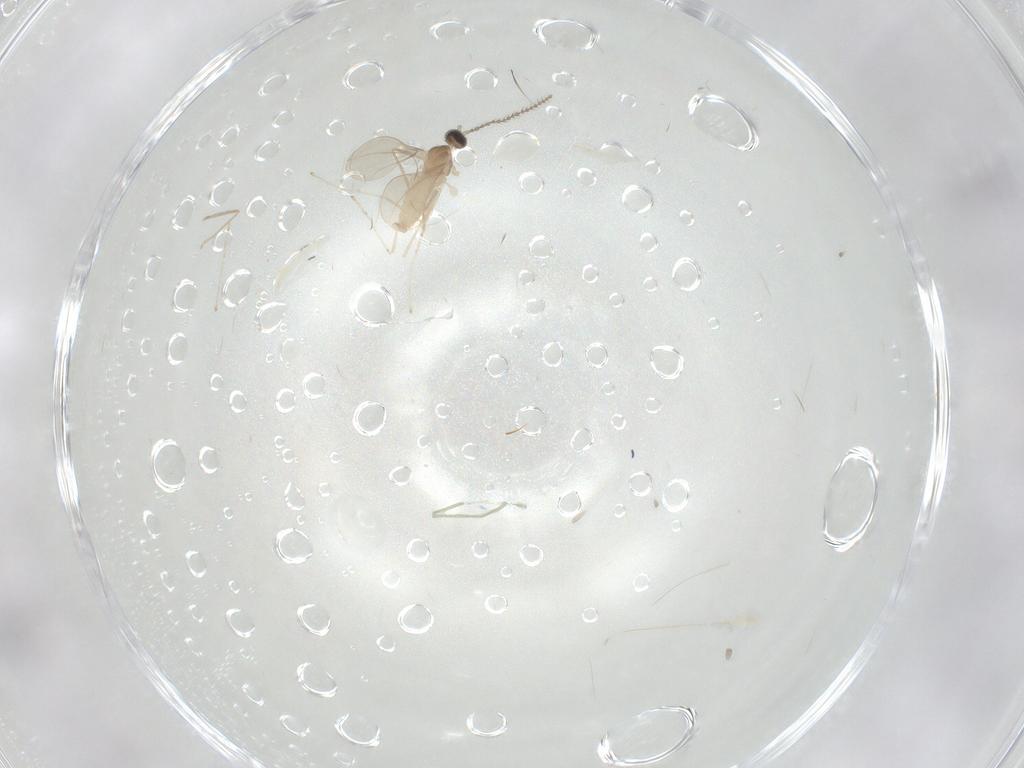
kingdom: Animalia
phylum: Arthropoda
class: Insecta
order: Diptera
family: Cecidomyiidae
